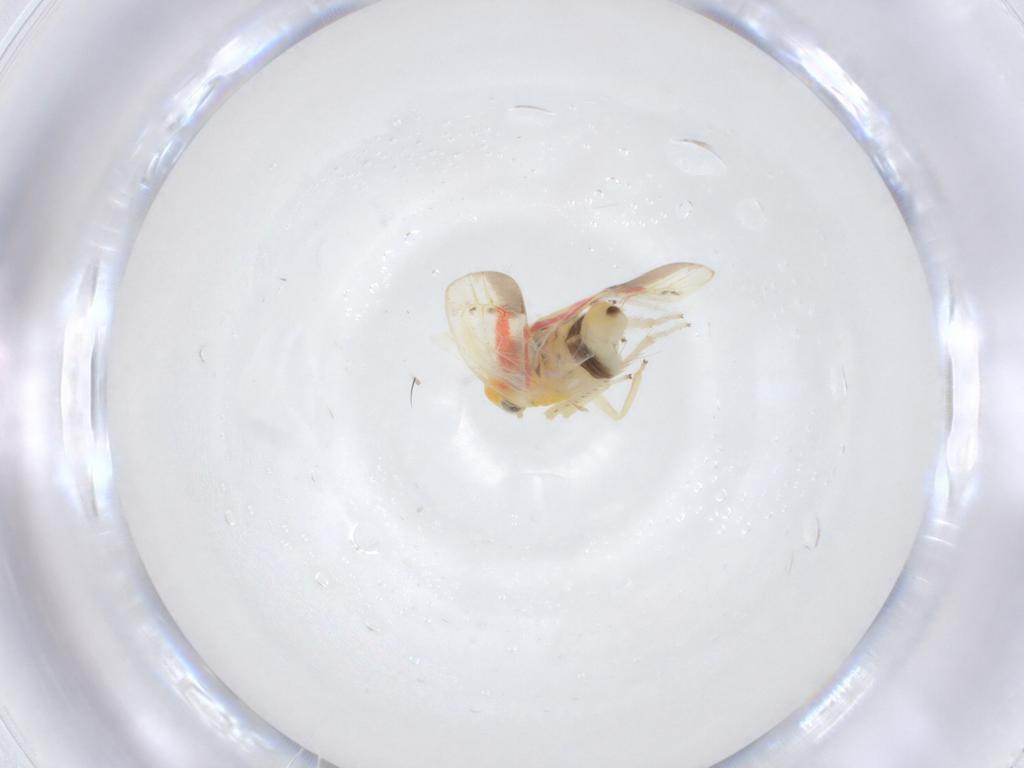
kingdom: Animalia
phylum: Arthropoda
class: Insecta
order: Hemiptera
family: Cicadellidae
